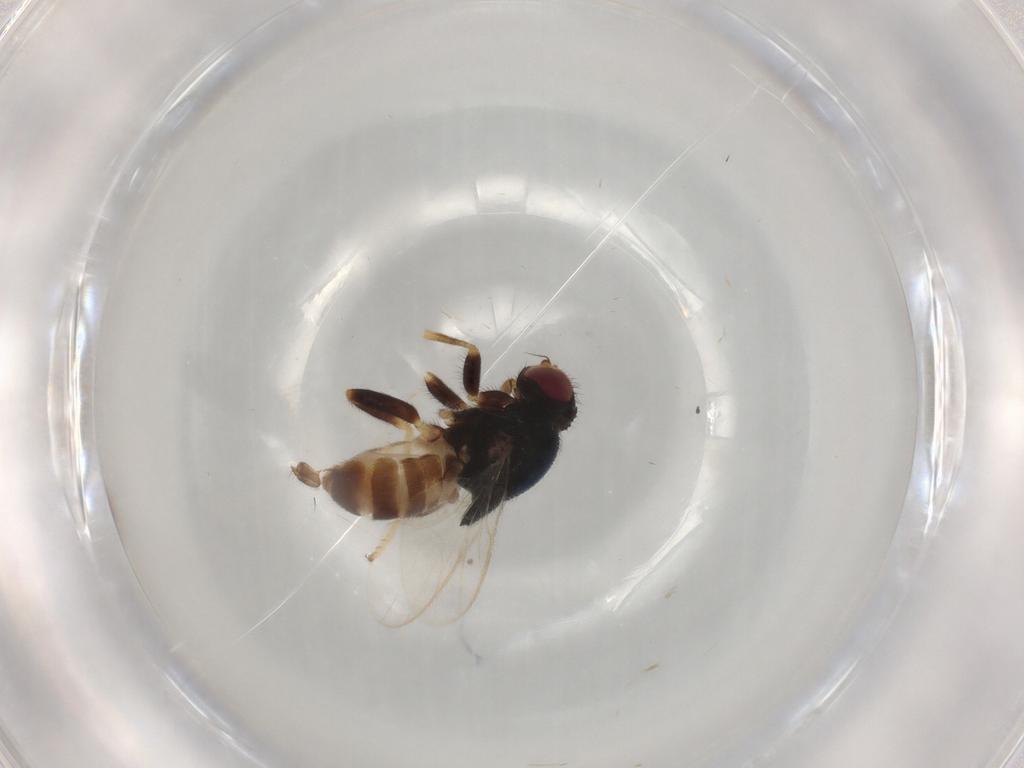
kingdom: Animalia
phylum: Arthropoda
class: Insecta
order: Diptera
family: Chloropidae
